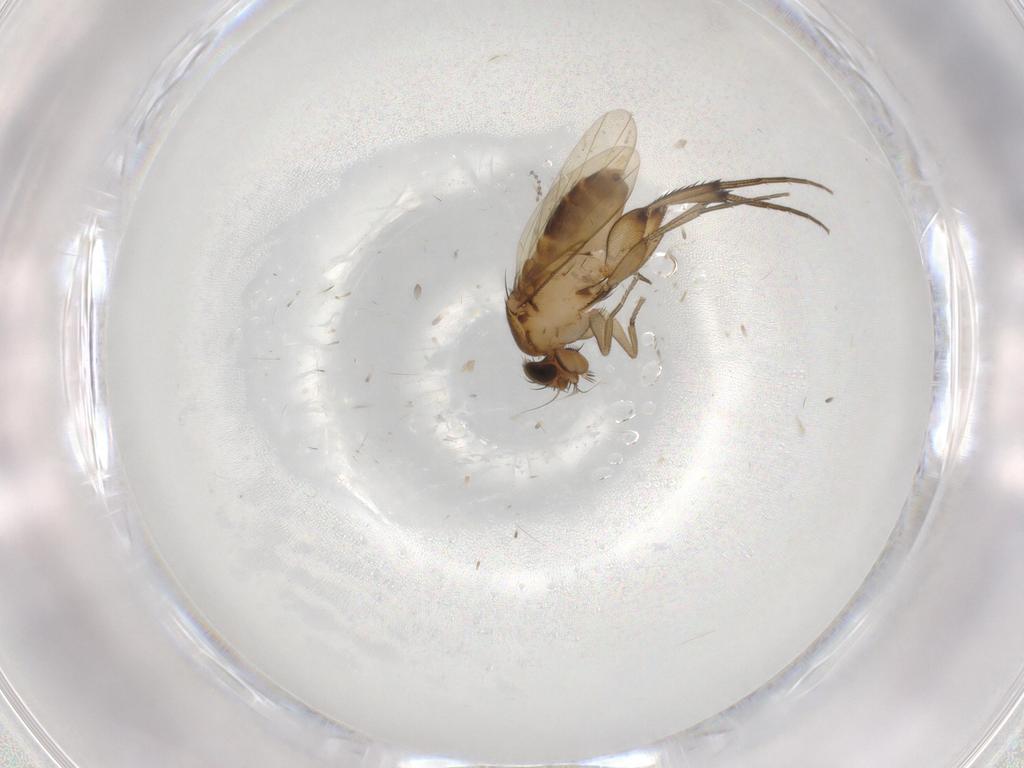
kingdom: Animalia
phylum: Arthropoda
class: Insecta
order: Diptera
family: Phoridae
